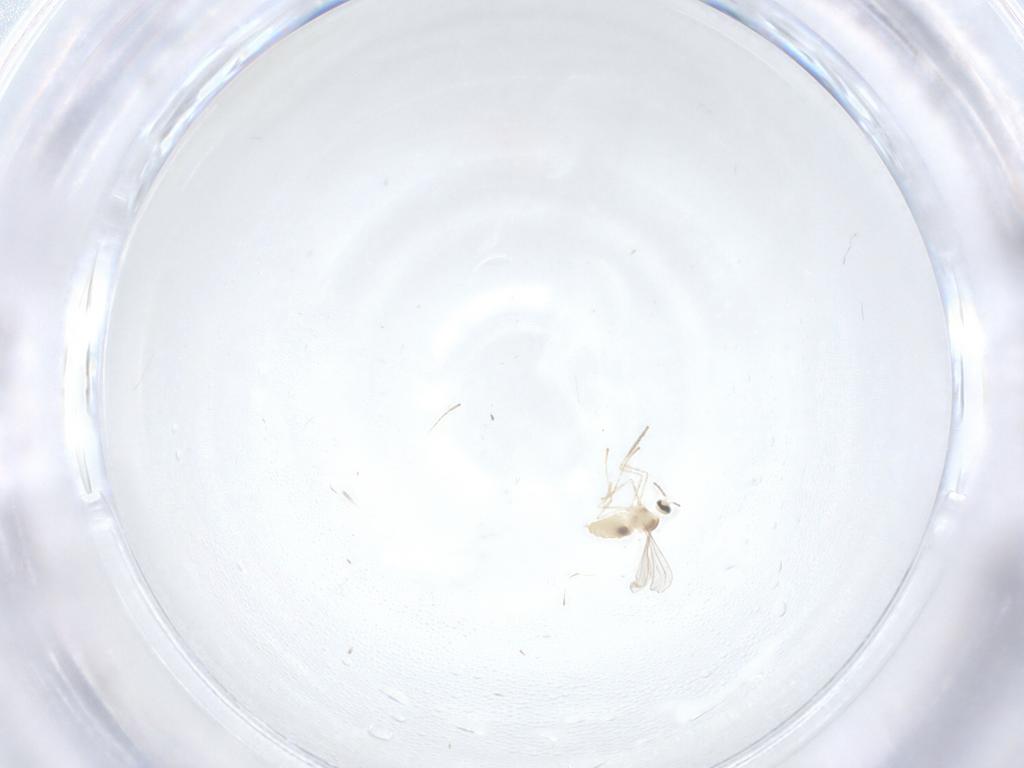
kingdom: Animalia
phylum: Arthropoda
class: Insecta
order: Diptera
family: Cecidomyiidae
